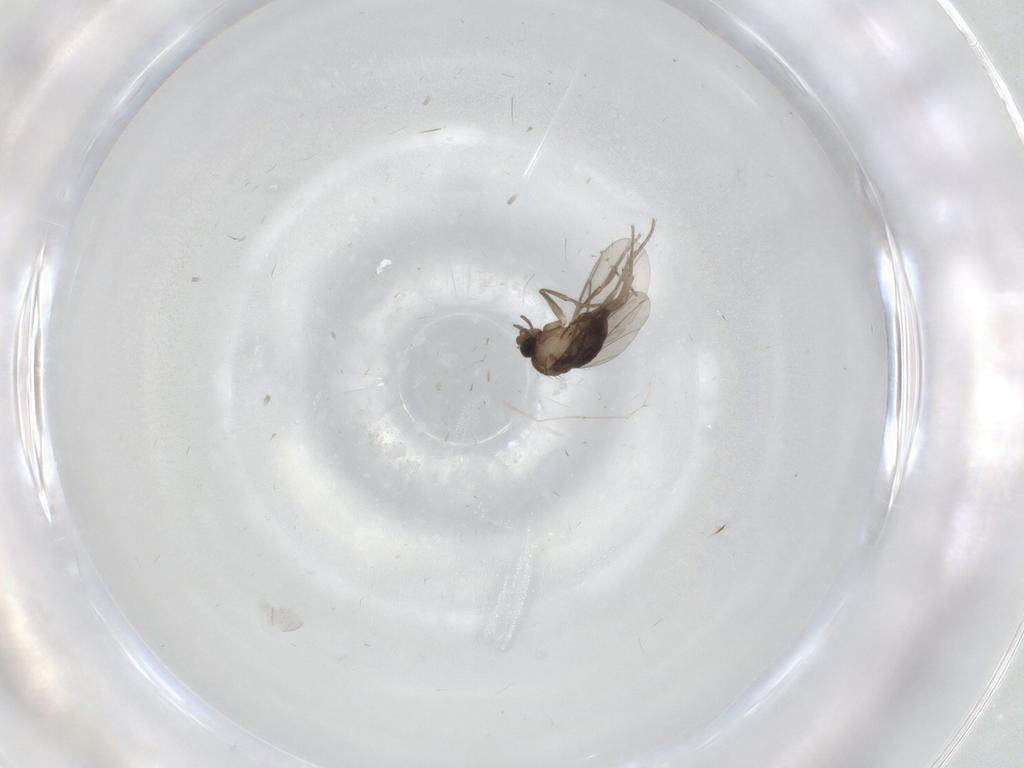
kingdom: Animalia
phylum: Arthropoda
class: Insecta
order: Diptera
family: Ceratopogonidae
